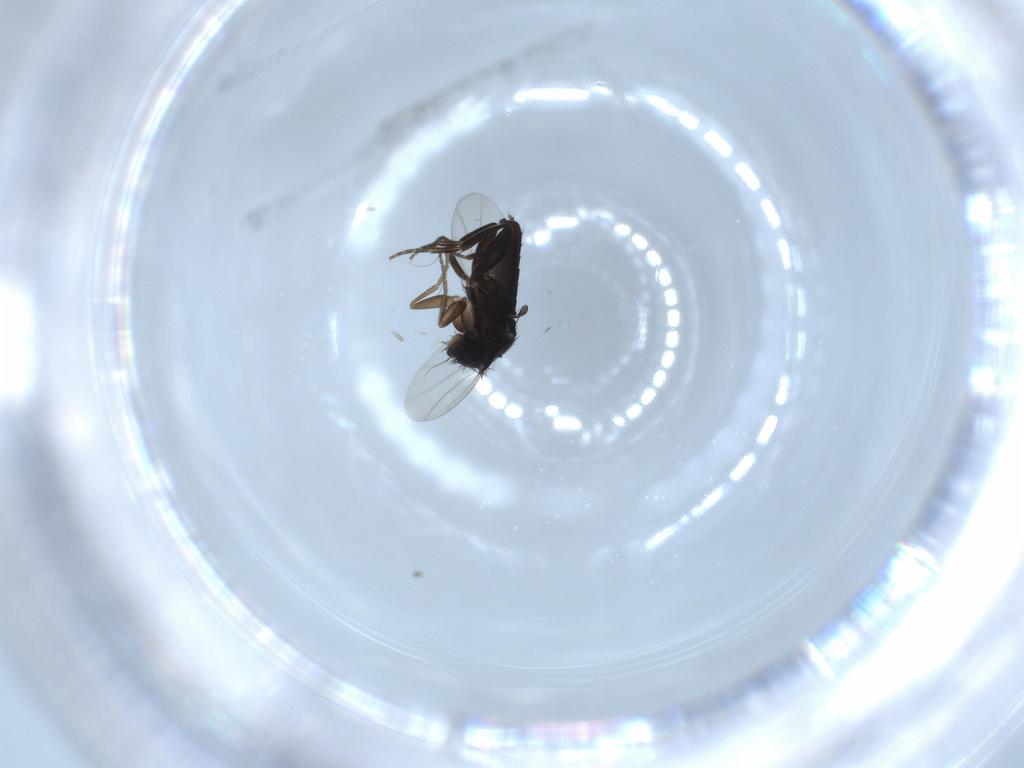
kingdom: Animalia
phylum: Arthropoda
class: Insecta
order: Diptera
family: Phoridae
